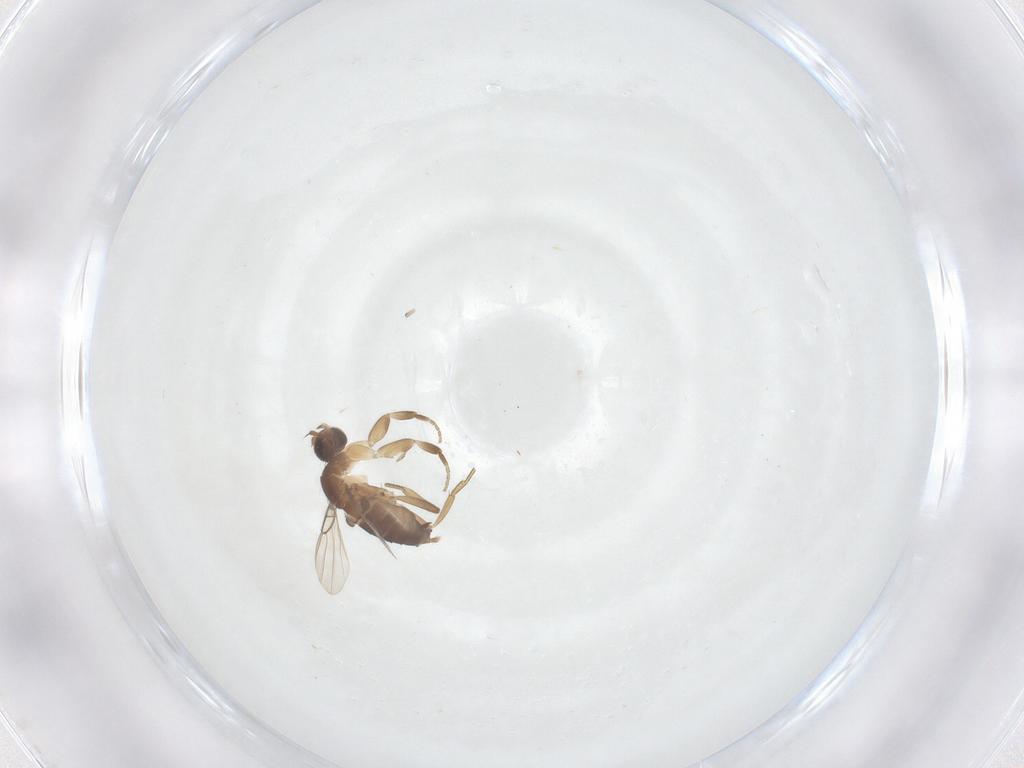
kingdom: Animalia
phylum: Arthropoda
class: Insecta
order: Diptera
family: Phoridae
